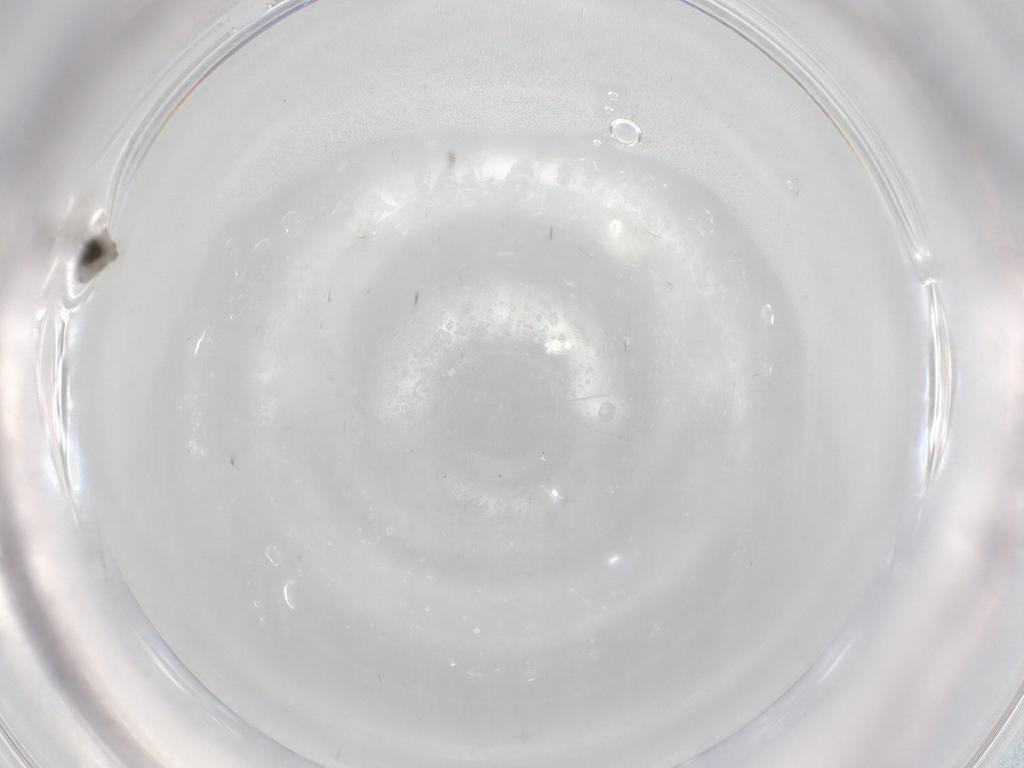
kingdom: Animalia
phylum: Arthropoda
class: Insecta
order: Diptera
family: Cecidomyiidae
